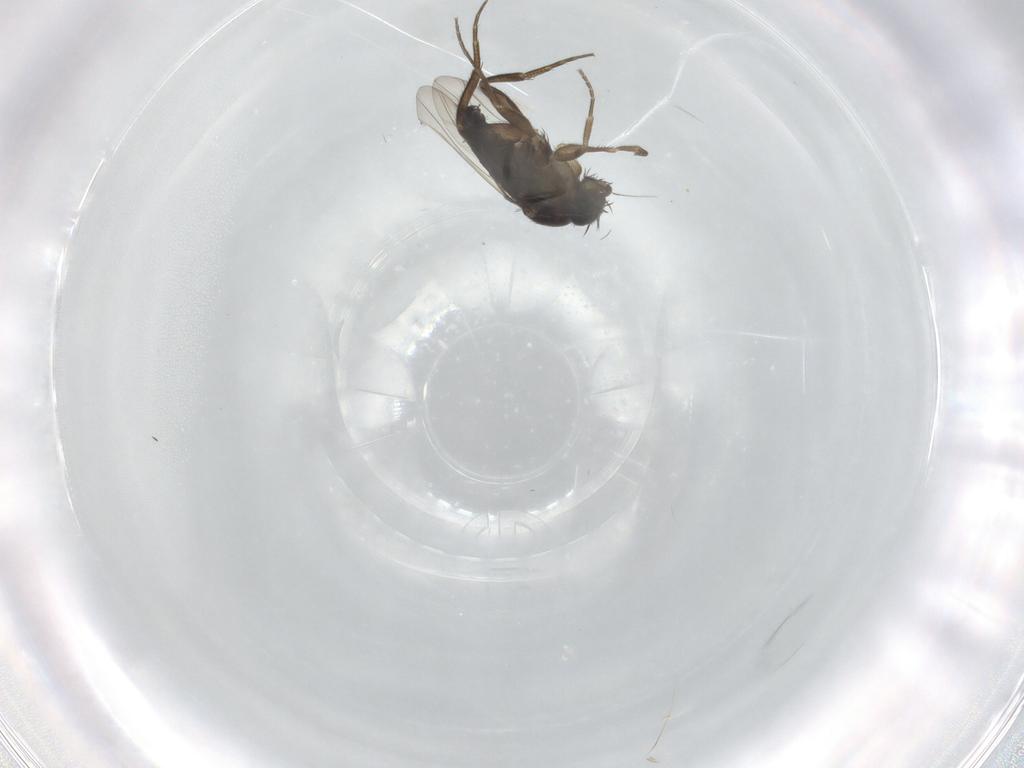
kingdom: Animalia
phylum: Arthropoda
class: Insecta
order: Diptera
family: Phoridae
